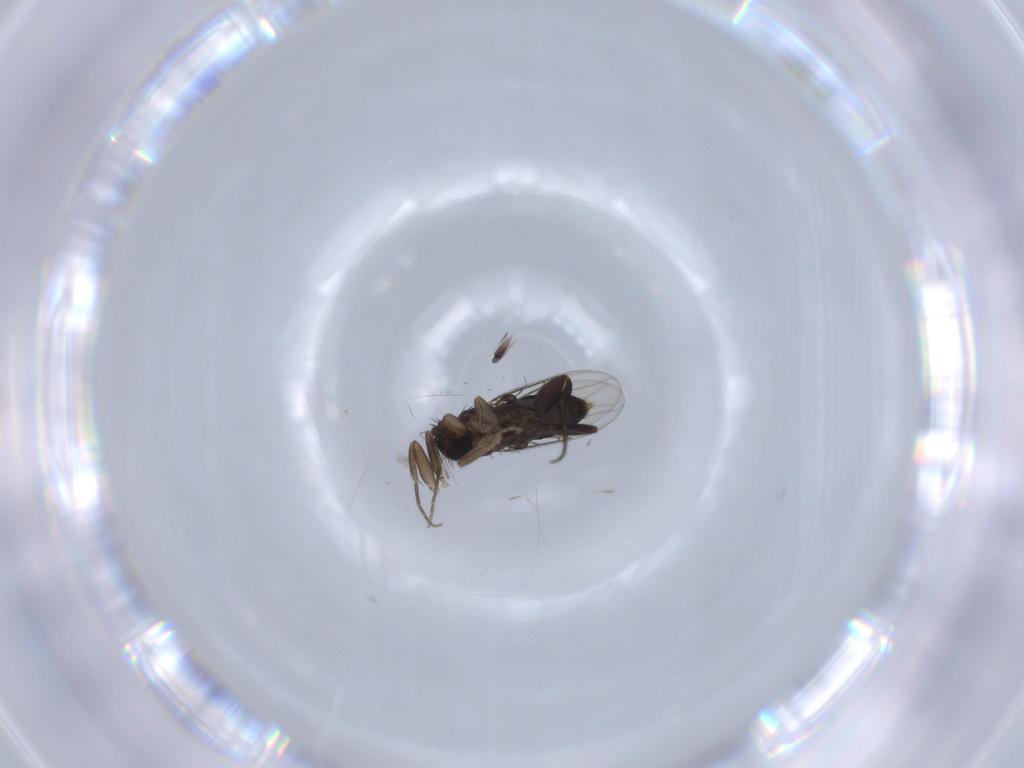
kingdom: Animalia
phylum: Arthropoda
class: Insecta
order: Diptera
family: Phoridae
